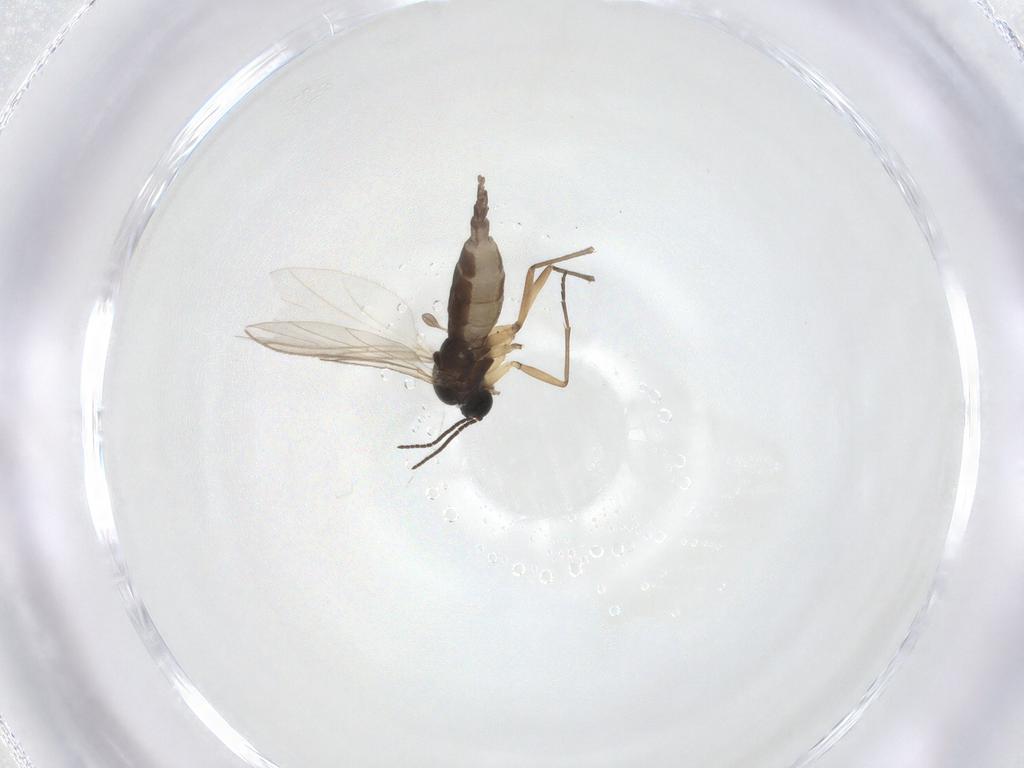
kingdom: Animalia
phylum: Arthropoda
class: Insecta
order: Diptera
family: Sciaridae
